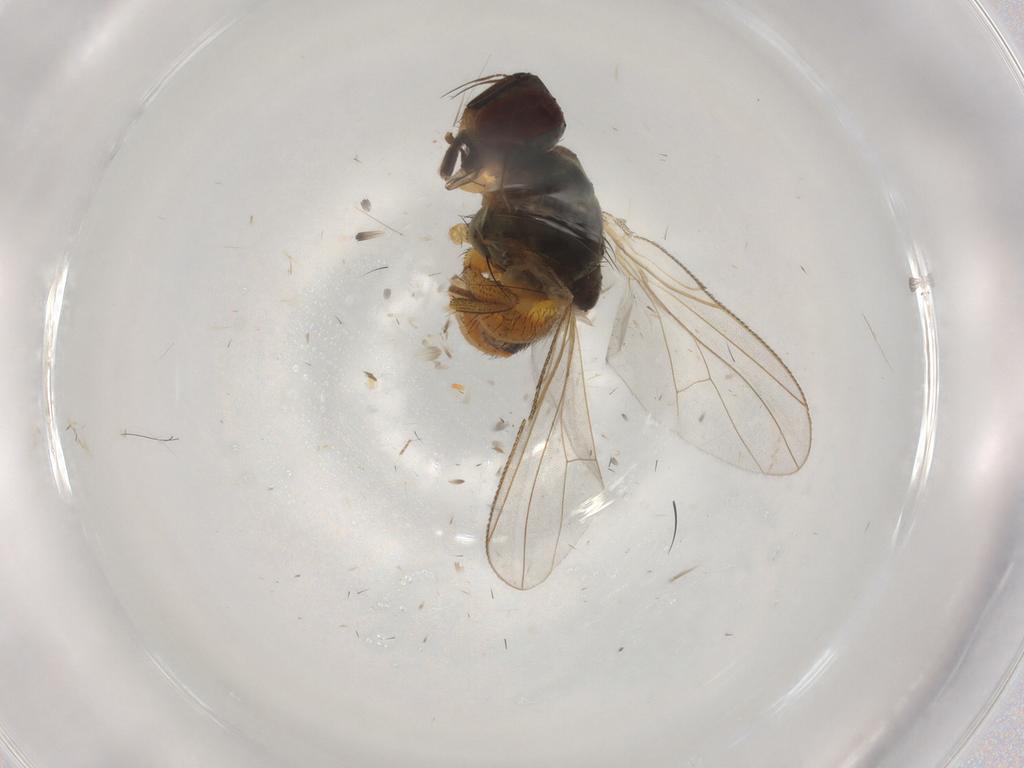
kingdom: Animalia
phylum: Arthropoda
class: Insecta
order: Diptera
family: Muscidae
